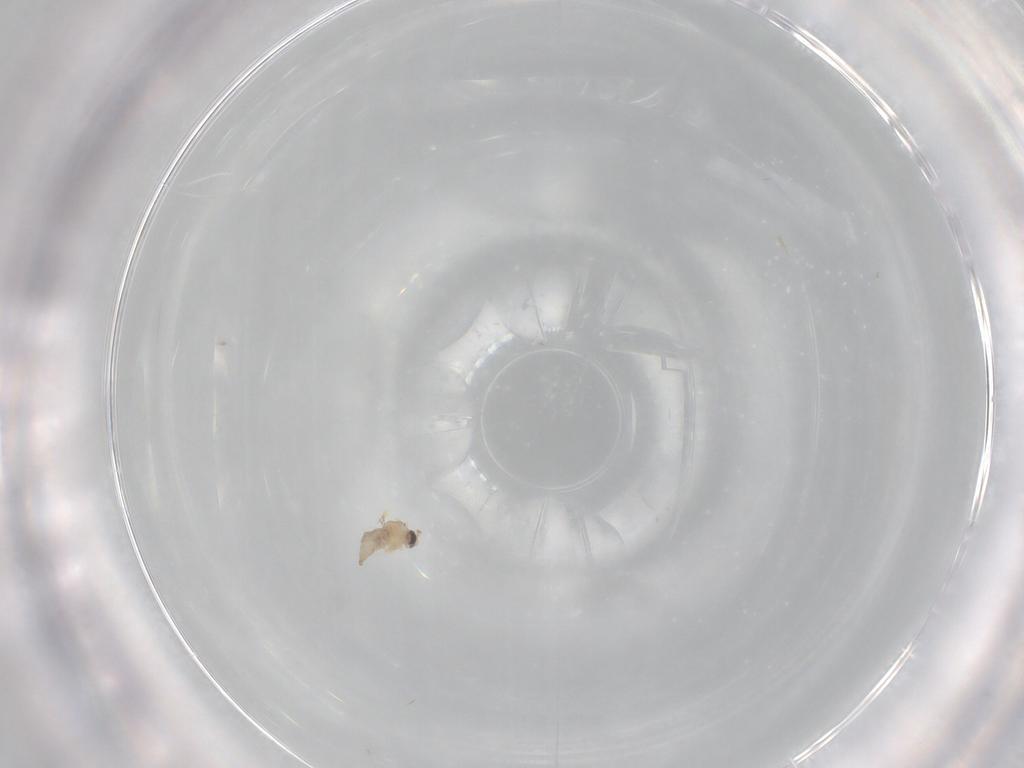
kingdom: Animalia
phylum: Arthropoda
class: Insecta
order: Diptera
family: Cecidomyiidae
